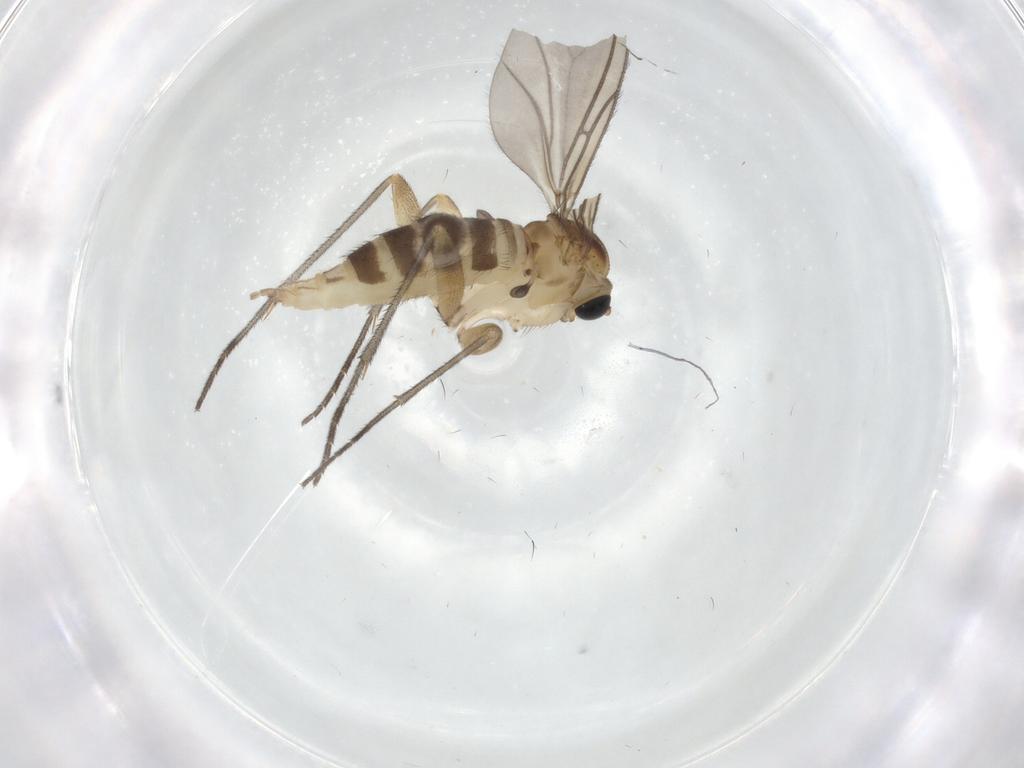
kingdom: Animalia
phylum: Arthropoda
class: Insecta
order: Diptera
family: Sciaridae
